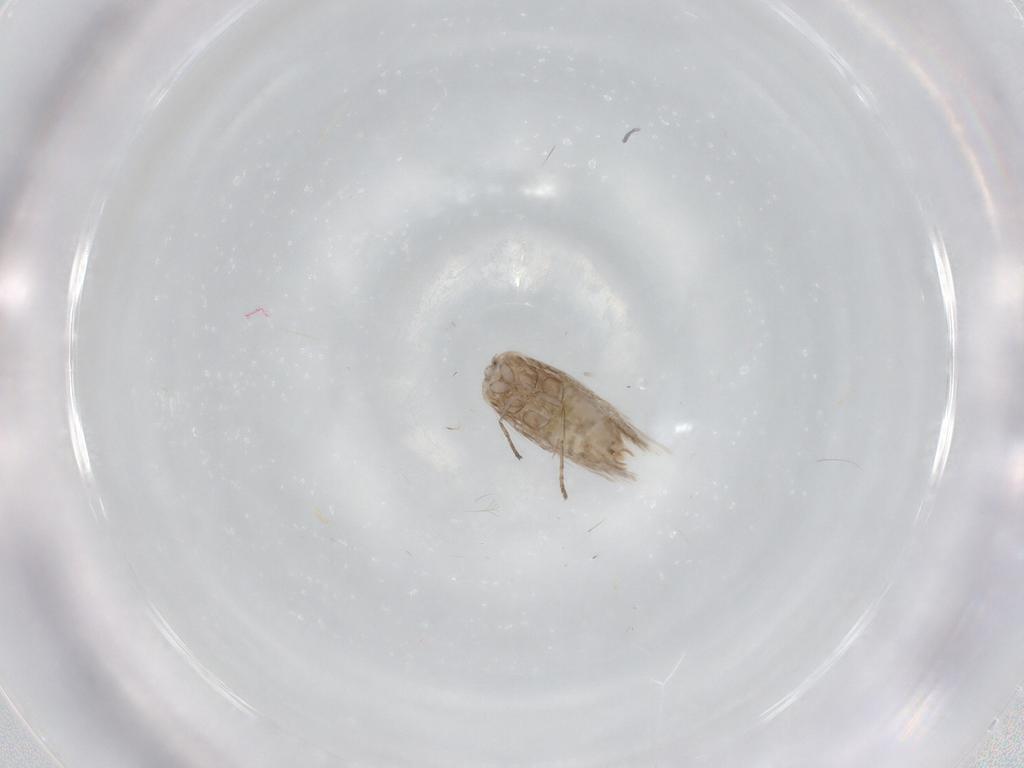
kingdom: Animalia
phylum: Arthropoda
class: Insecta
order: Lepidoptera
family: Depressariidae
